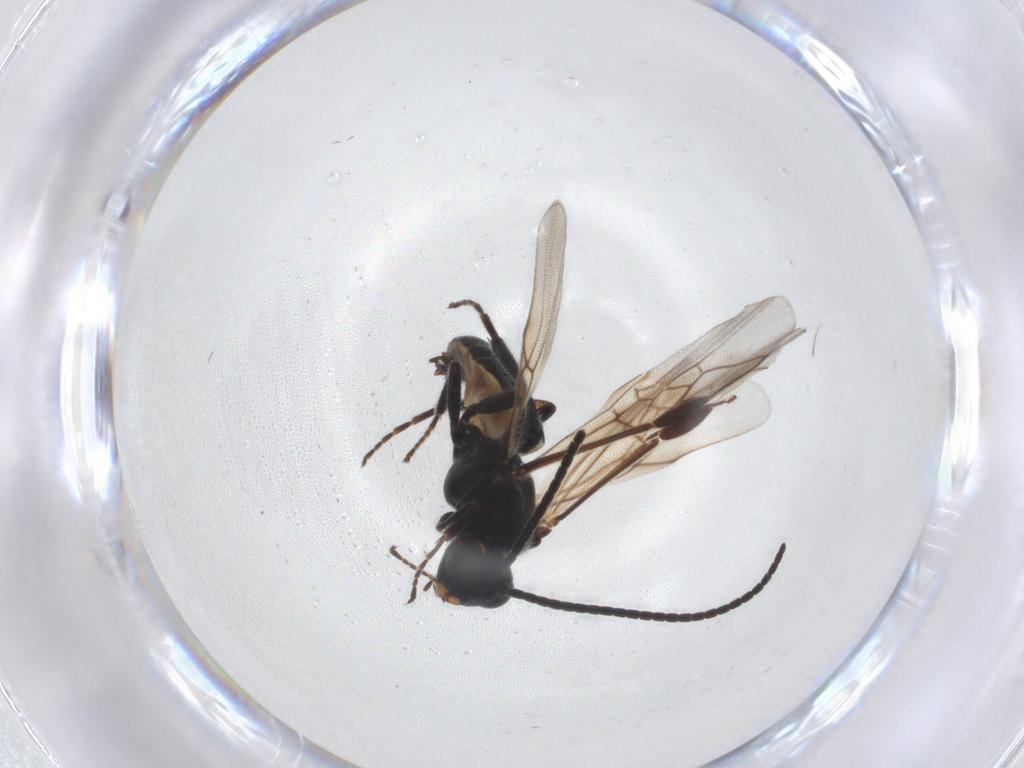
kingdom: Animalia
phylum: Arthropoda
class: Insecta
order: Hymenoptera
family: Braconidae
